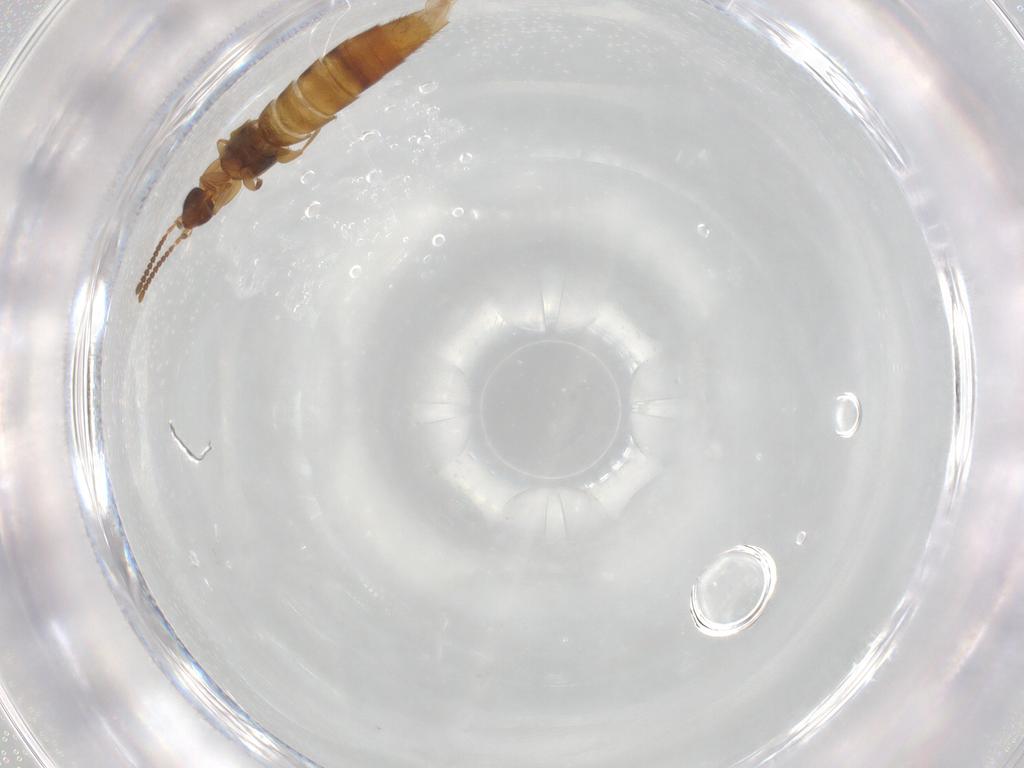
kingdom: Animalia
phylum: Arthropoda
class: Insecta
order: Coleoptera
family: Staphylinidae
